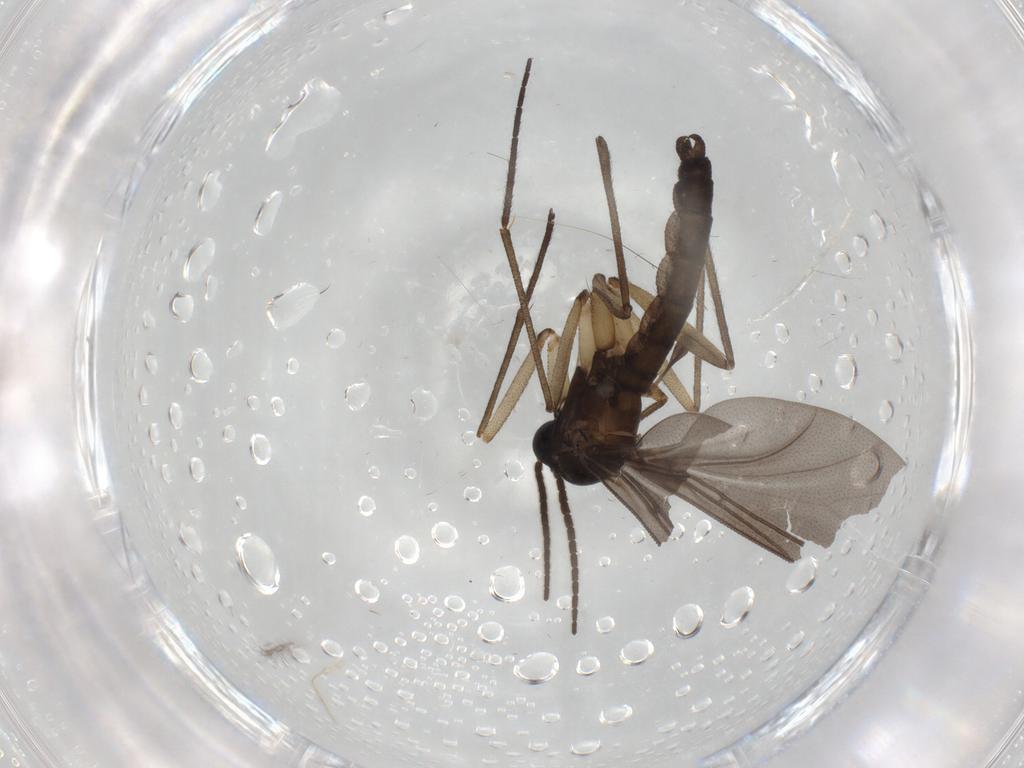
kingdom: Animalia
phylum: Arthropoda
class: Insecta
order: Diptera
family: Sciaridae
